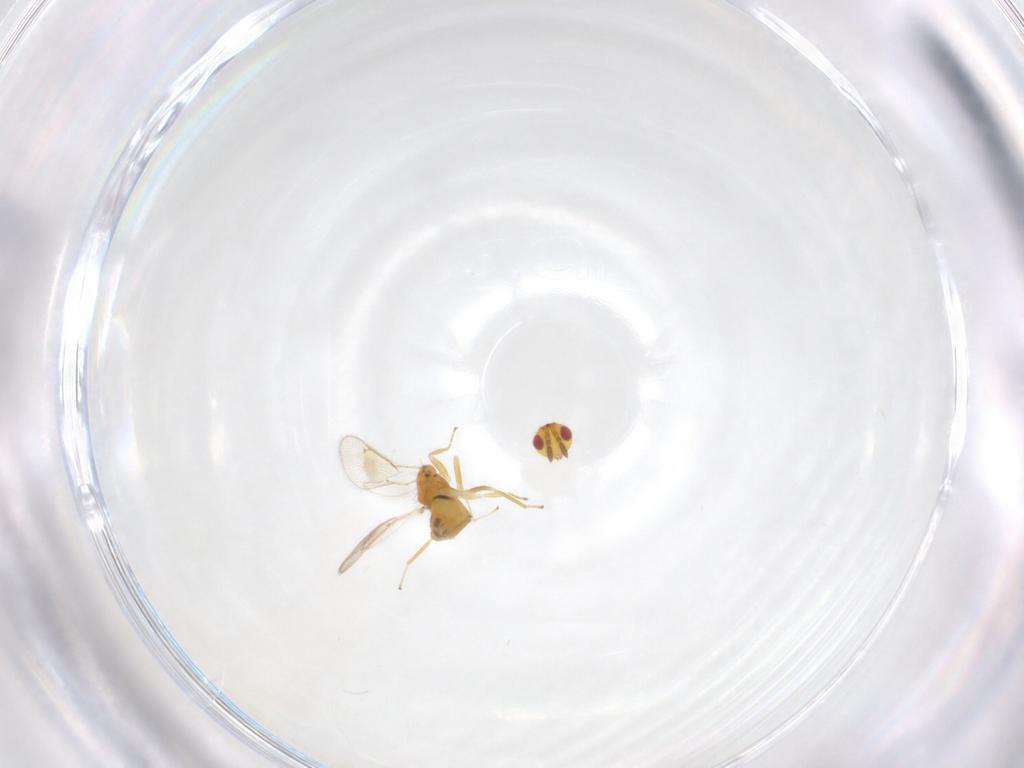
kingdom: Animalia
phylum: Arthropoda
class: Insecta
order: Hymenoptera
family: Eulophidae
